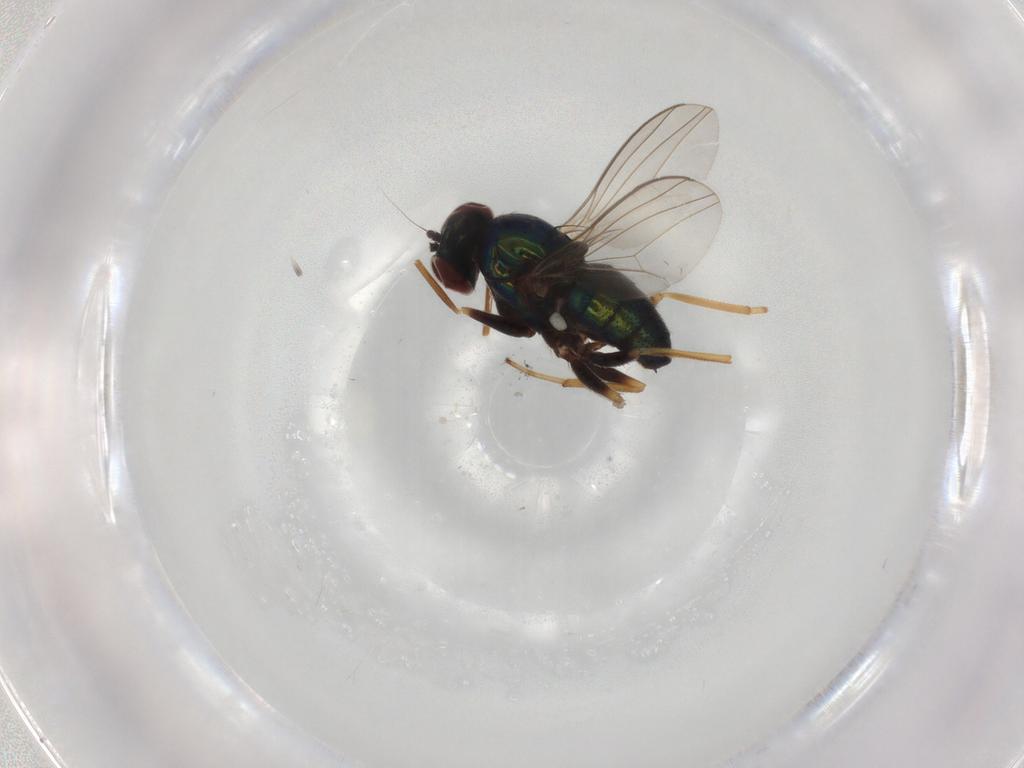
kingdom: Animalia
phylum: Arthropoda
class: Insecta
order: Diptera
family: Dolichopodidae
